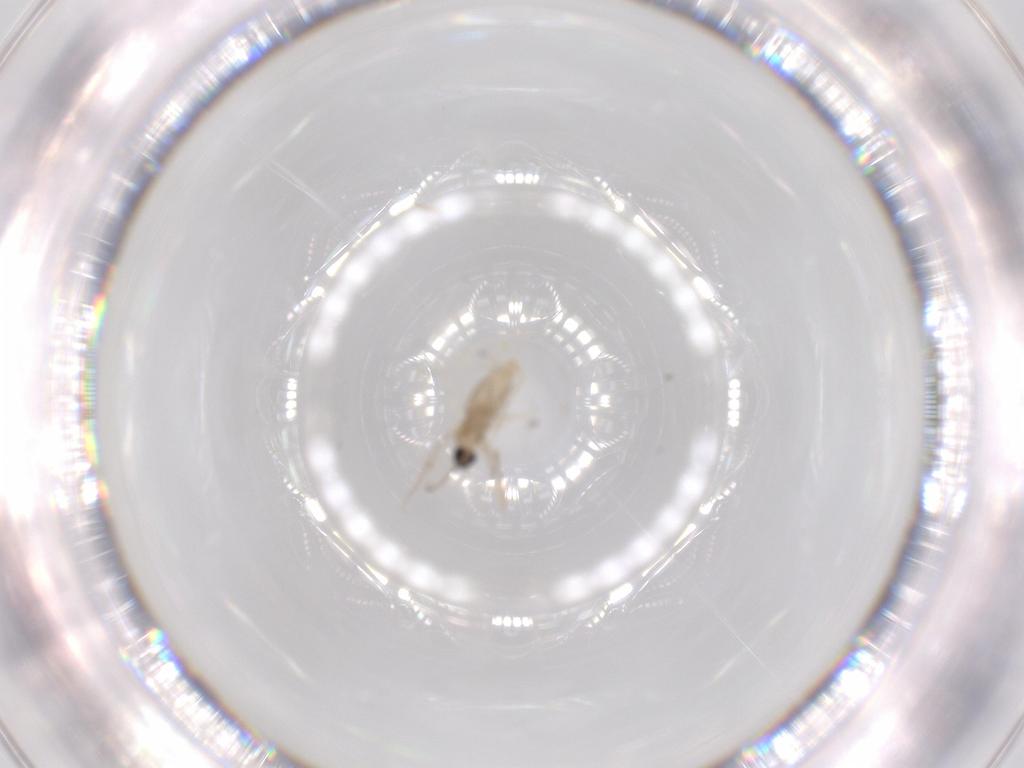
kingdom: Animalia
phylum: Arthropoda
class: Insecta
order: Diptera
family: Cecidomyiidae
